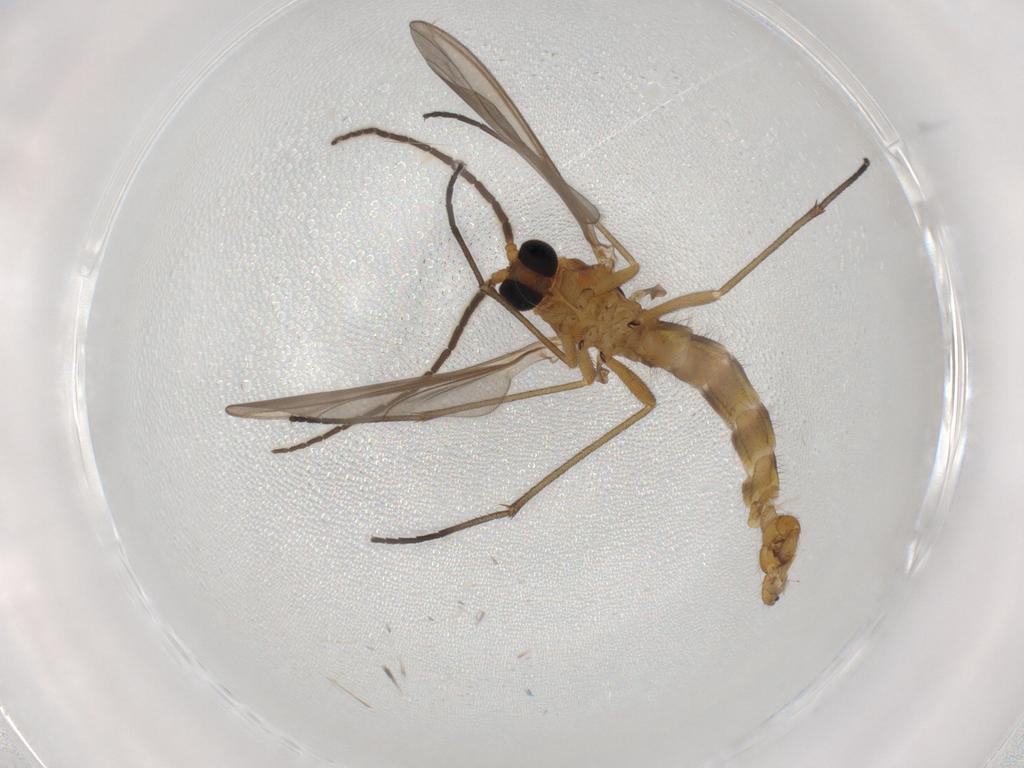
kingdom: Animalia
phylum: Arthropoda
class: Insecta
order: Diptera
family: Sciaridae
